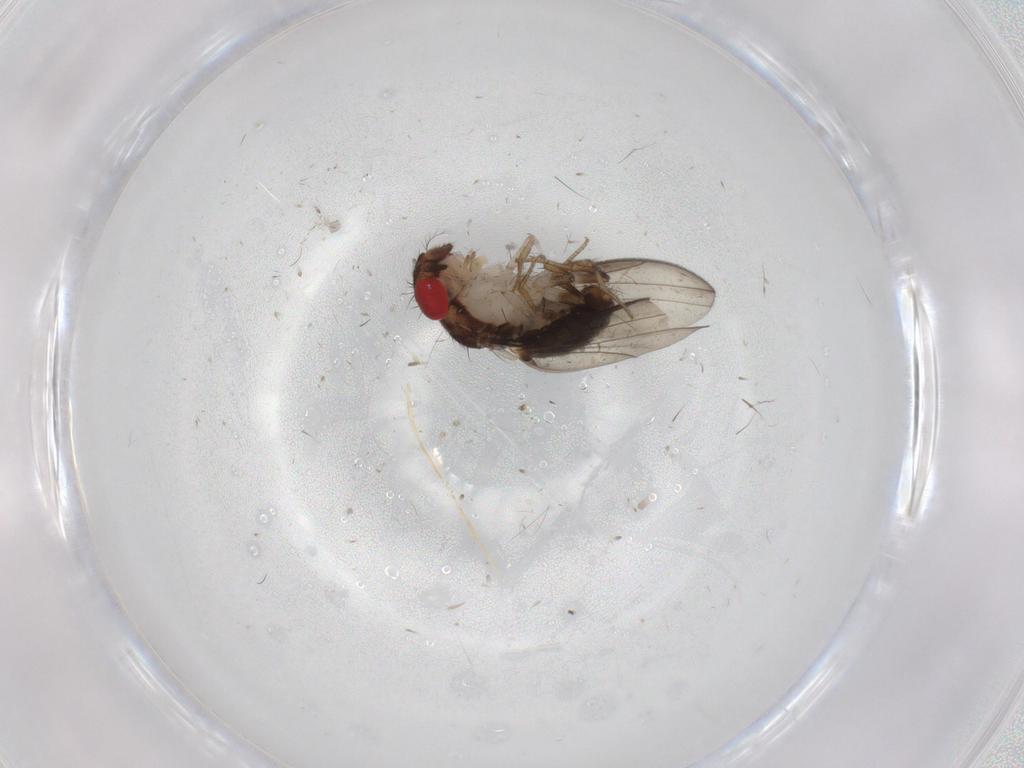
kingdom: Animalia
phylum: Arthropoda
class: Insecta
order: Diptera
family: Drosophilidae
